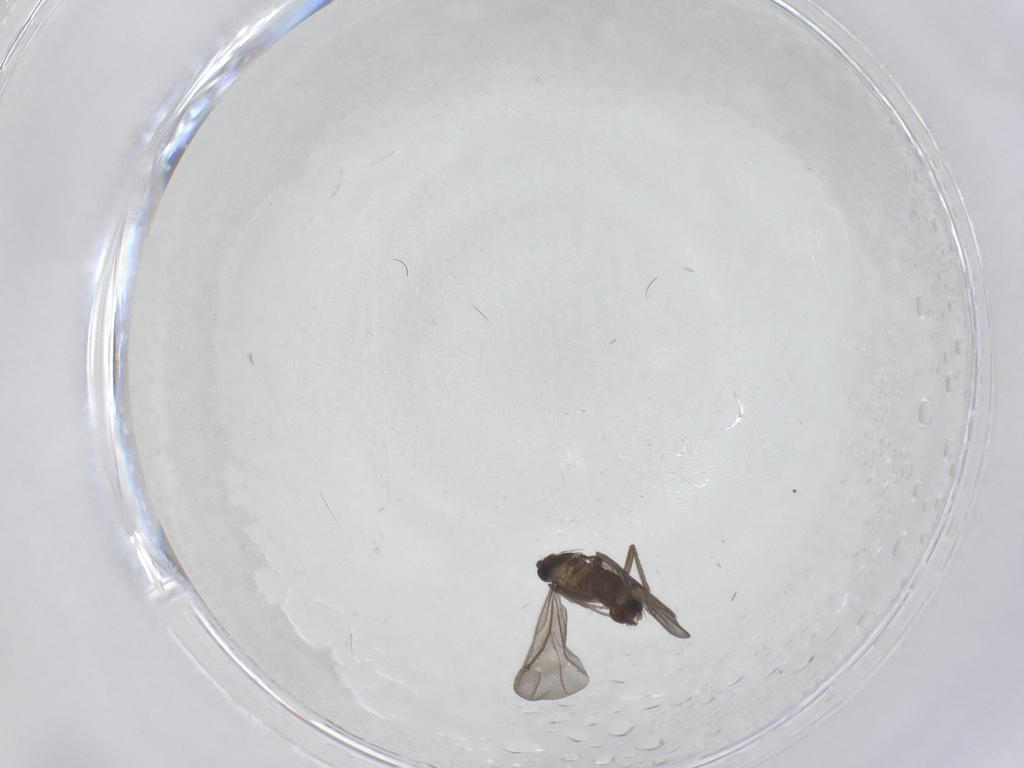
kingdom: Animalia
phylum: Arthropoda
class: Insecta
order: Diptera
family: Phoridae
